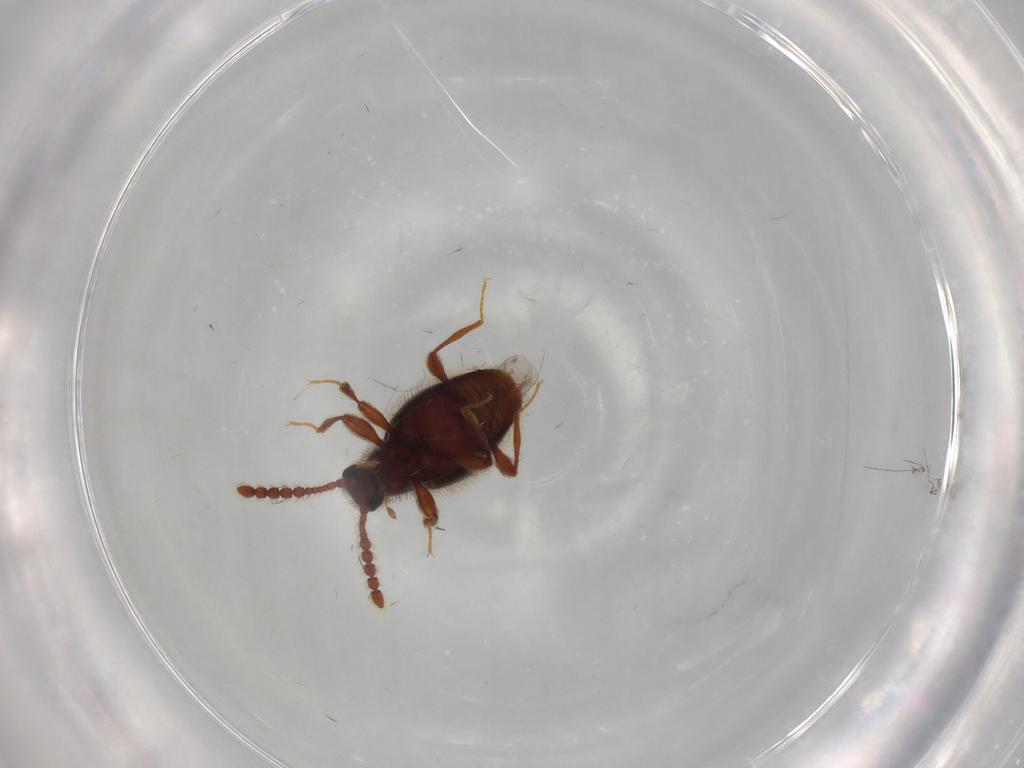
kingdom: Animalia
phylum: Arthropoda
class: Insecta
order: Coleoptera
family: Staphylinidae
